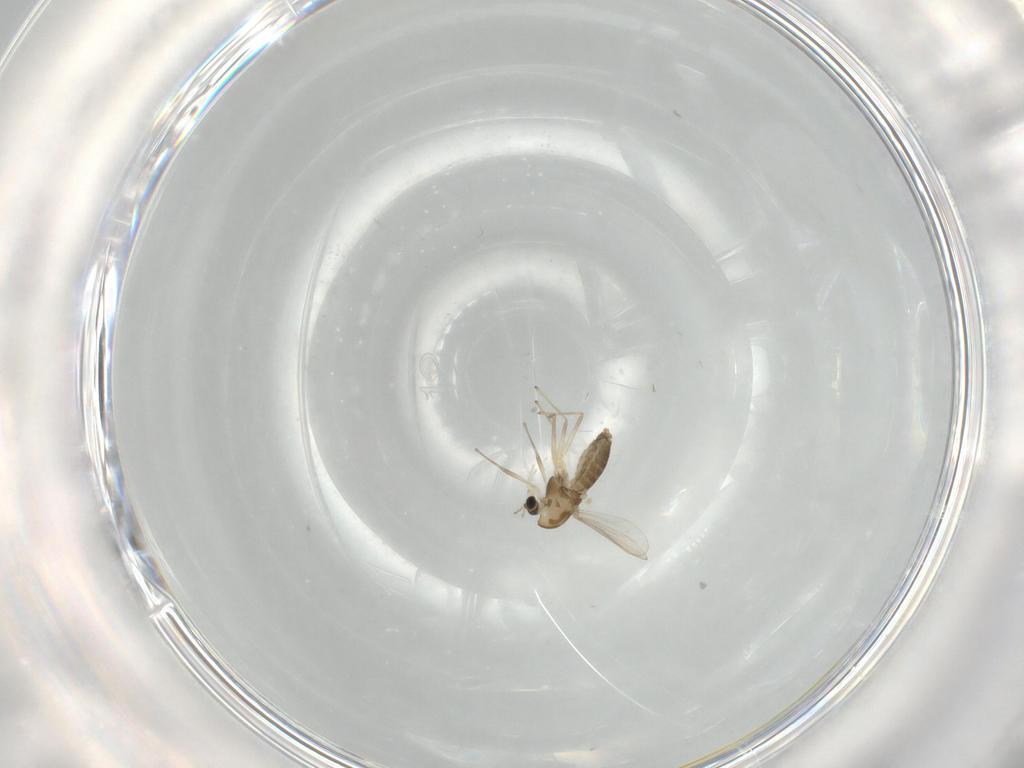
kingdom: Animalia
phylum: Arthropoda
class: Insecta
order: Diptera
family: Chironomidae
